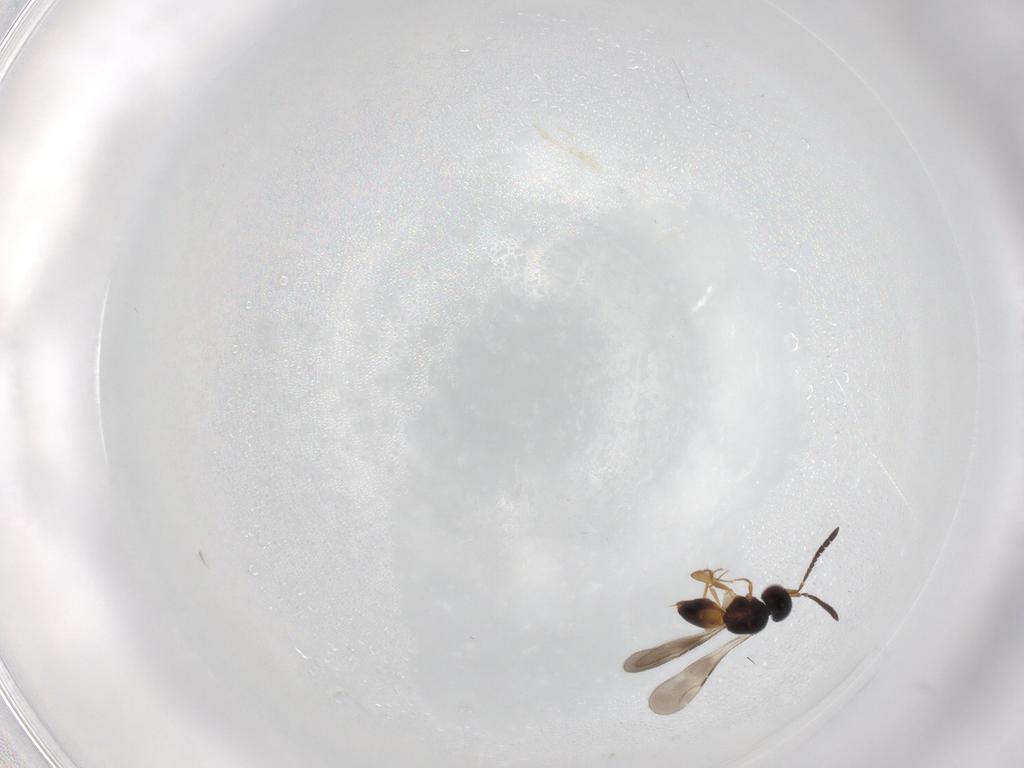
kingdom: Animalia
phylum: Arthropoda
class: Insecta
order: Hymenoptera
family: Ceraphronidae
